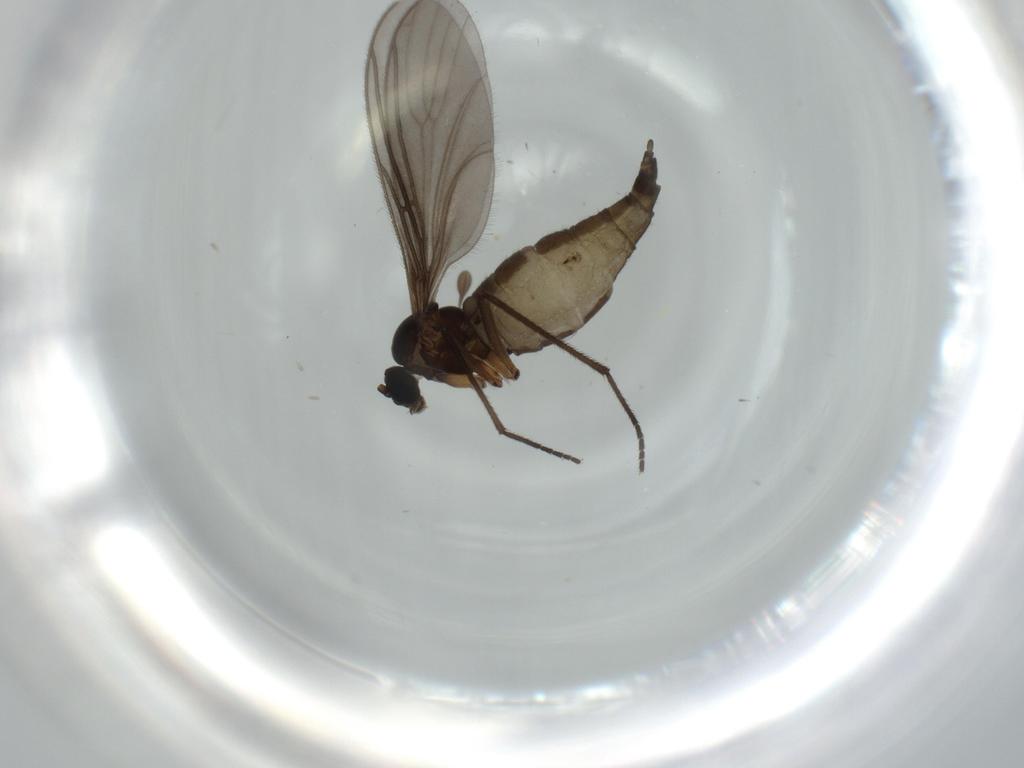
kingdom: Animalia
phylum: Arthropoda
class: Insecta
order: Diptera
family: Sciaridae
